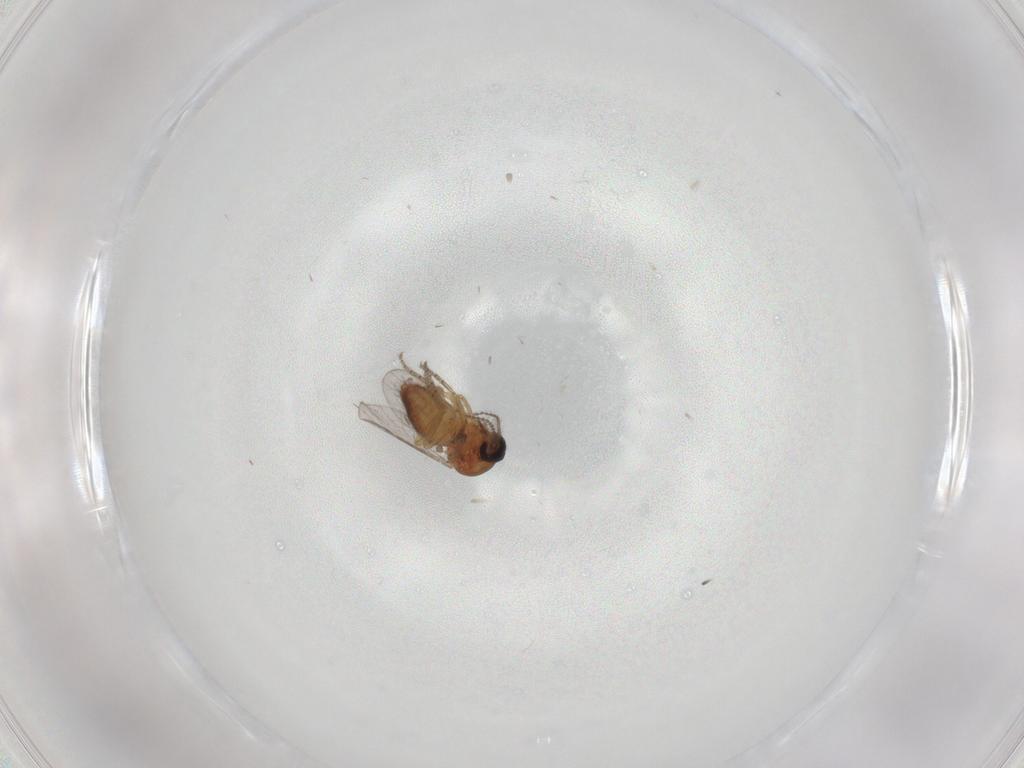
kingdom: Animalia
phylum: Arthropoda
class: Insecta
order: Diptera
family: Ceratopogonidae
